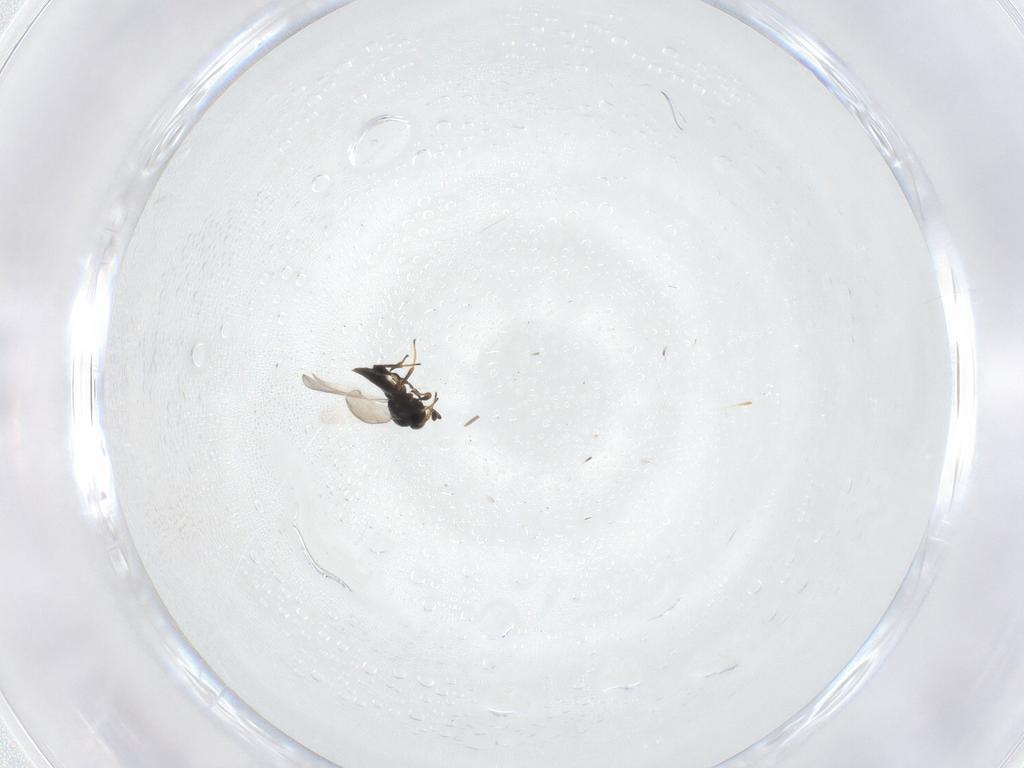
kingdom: Animalia
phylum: Arthropoda
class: Insecta
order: Hymenoptera
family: Platygastridae
